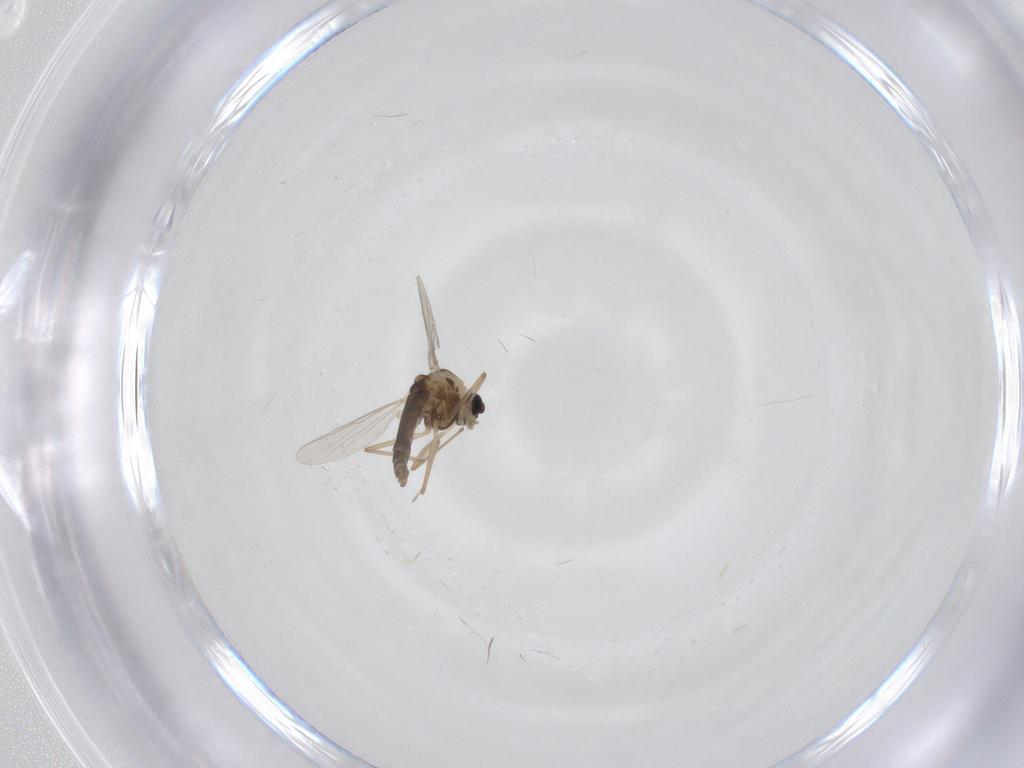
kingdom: Animalia
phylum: Arthropoda
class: Insecta
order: Diptera
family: Chironomidae
